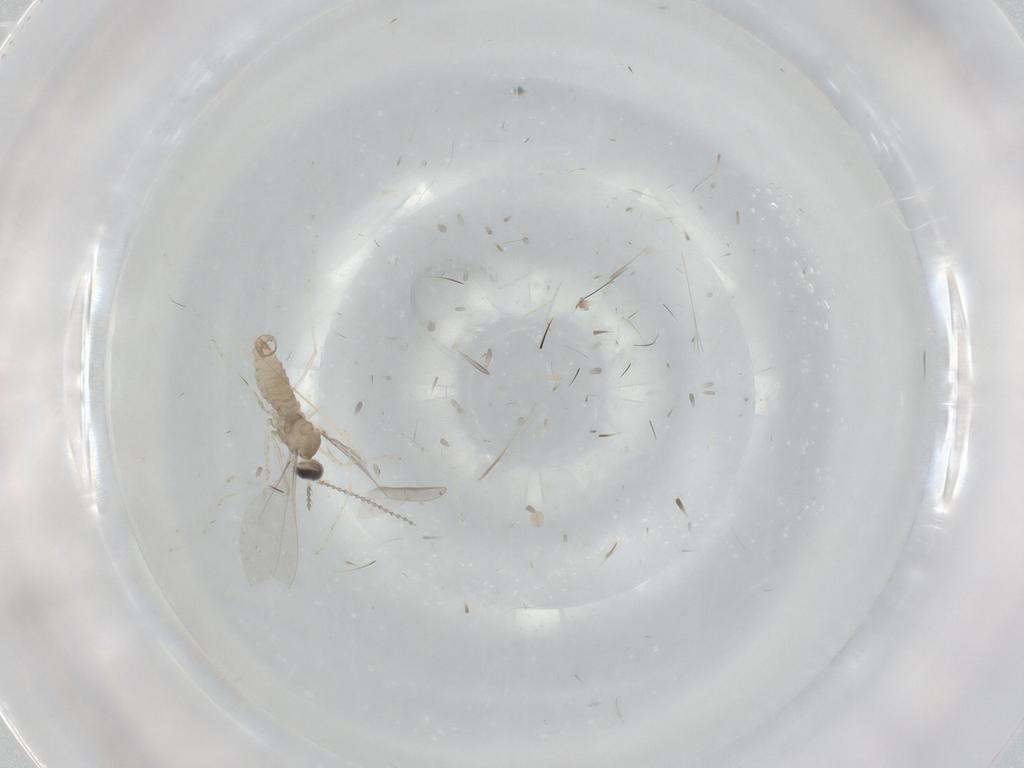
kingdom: Animalia
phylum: Arthropoda
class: Insecta
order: Diptera
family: Cecidomyiidae
